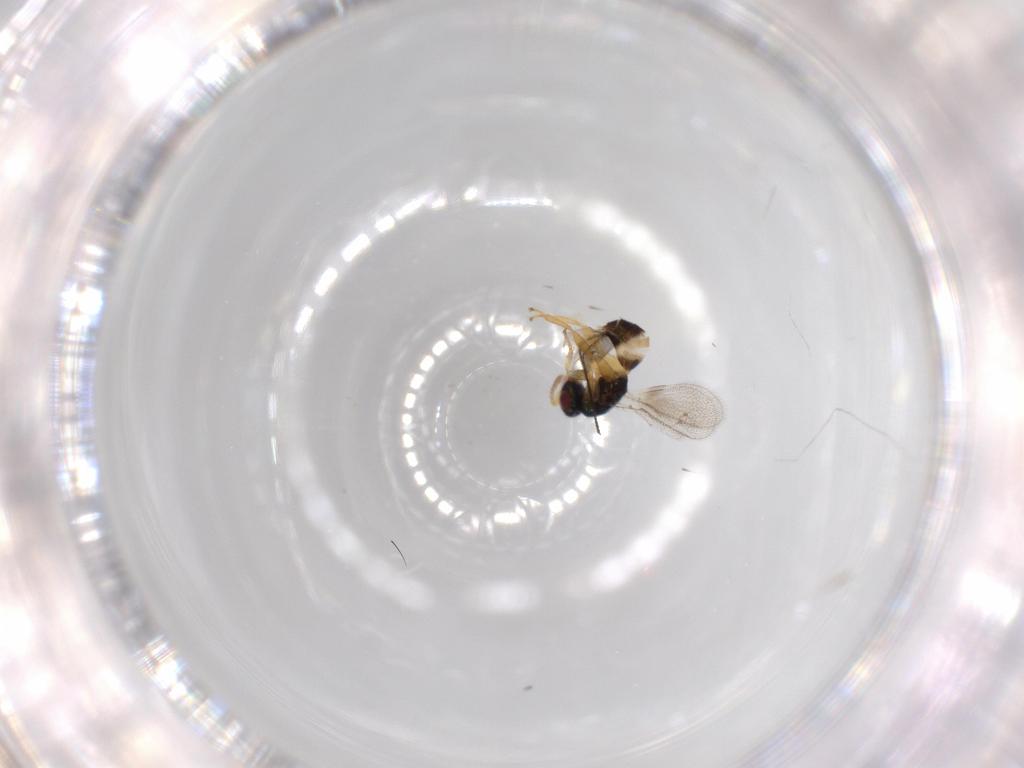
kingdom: Animalia
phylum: Arthropoda
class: Insecta
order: Hymenoptera
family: Torymidae
